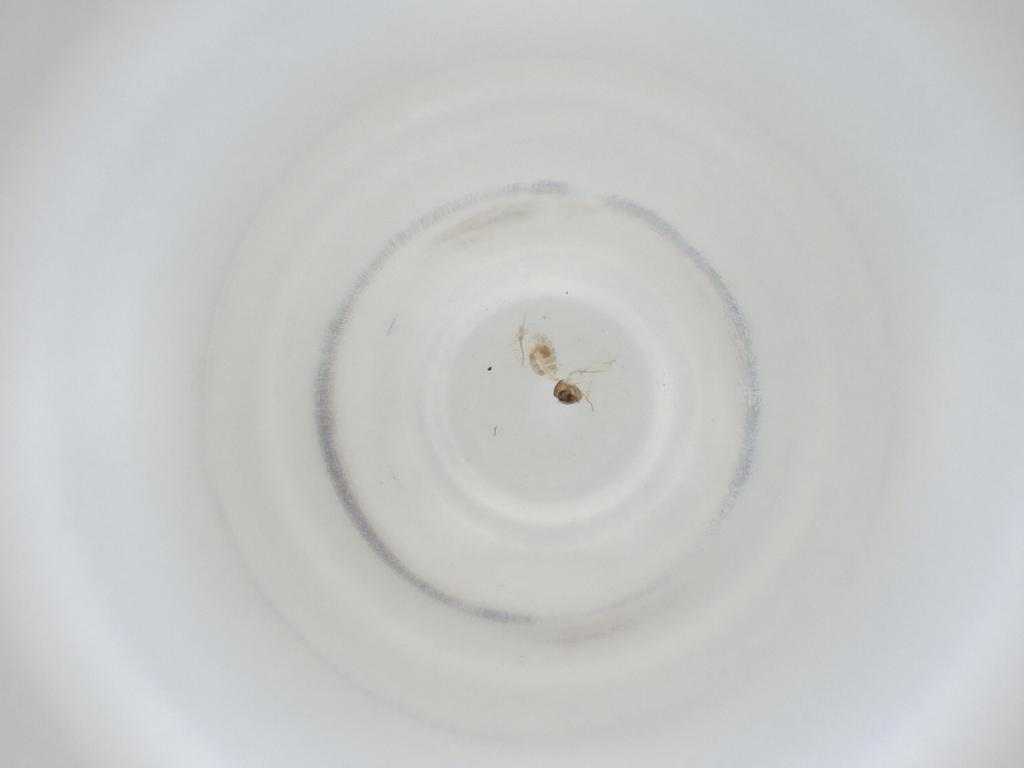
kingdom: Animalia
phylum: Arthropoda
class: Insecta
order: Diptera
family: Cecidomyiidae
